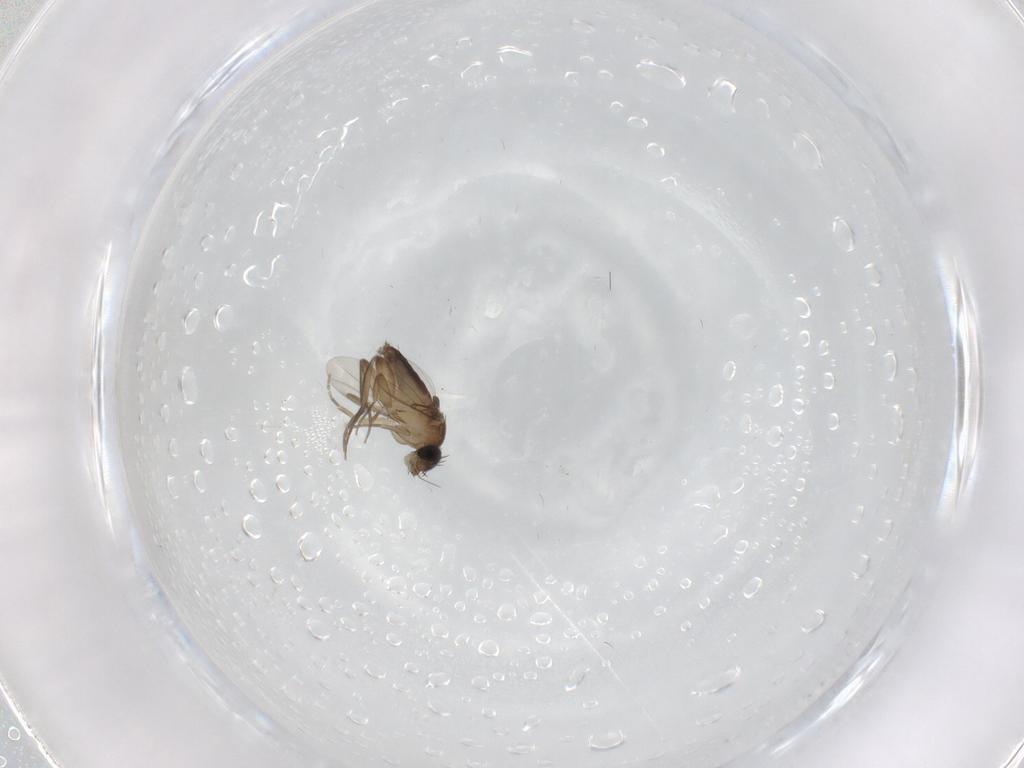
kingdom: Animalia
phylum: Arthropoda
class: Insecta
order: Diptera
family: Phoridae
